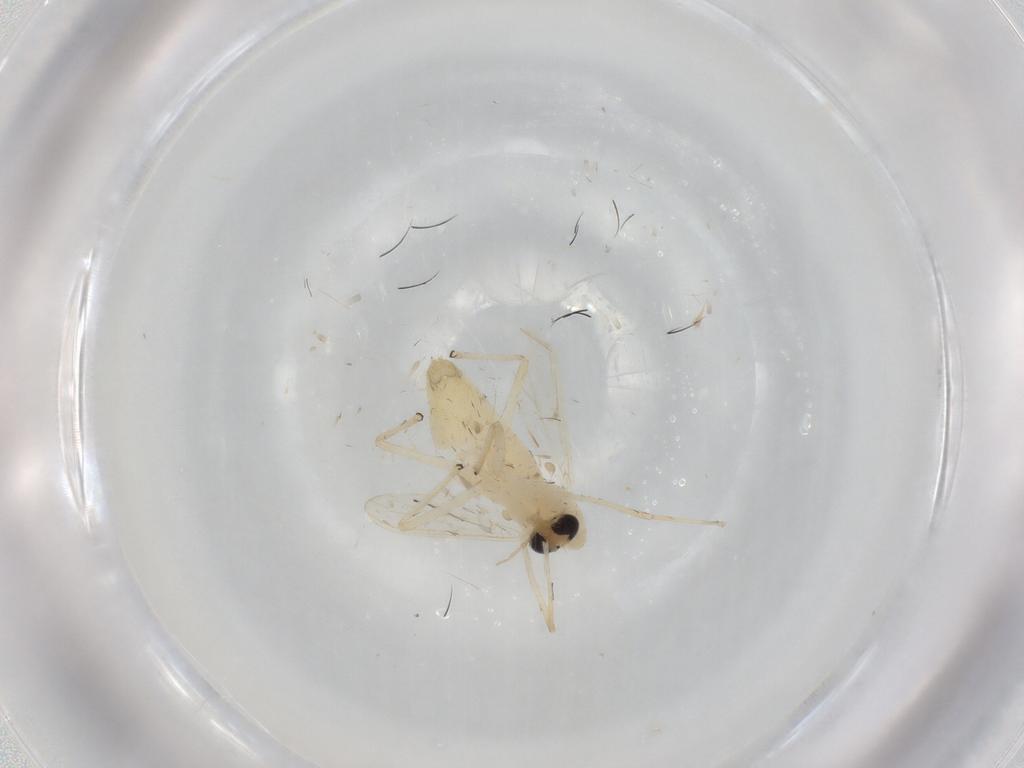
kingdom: Animalia
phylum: Arthropoda
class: Insecta
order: Diptera
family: Chironomidae
